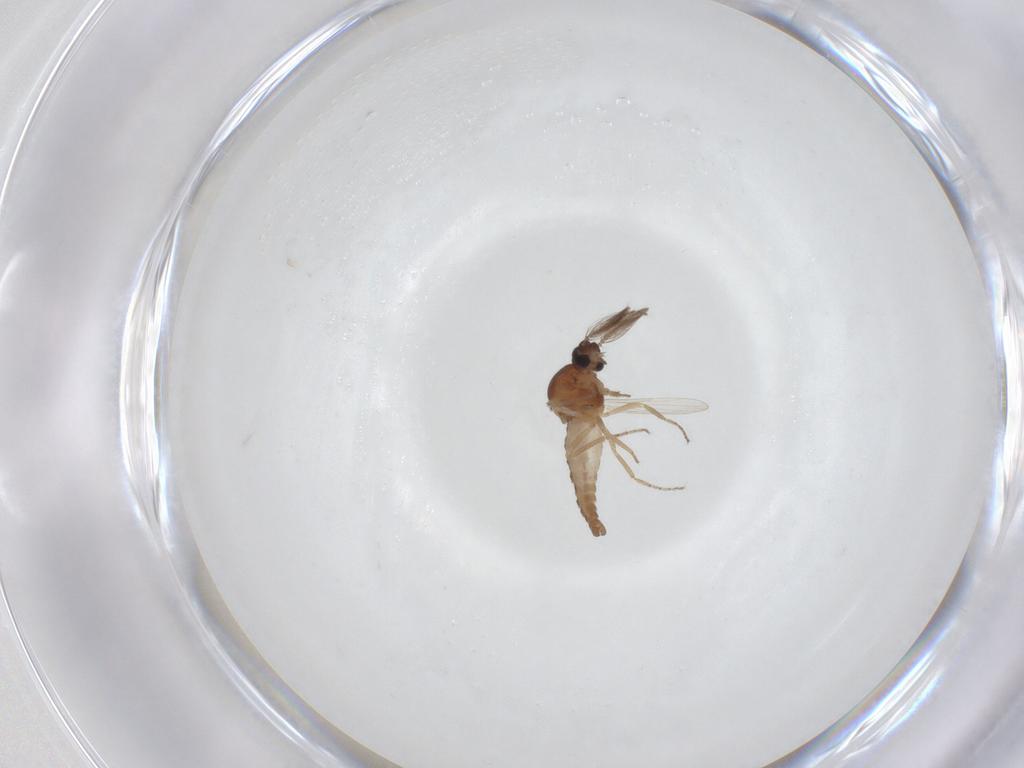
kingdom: Animalia
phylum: Arthropoda
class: Insecta
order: Diptera
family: Ceratopogonidae
